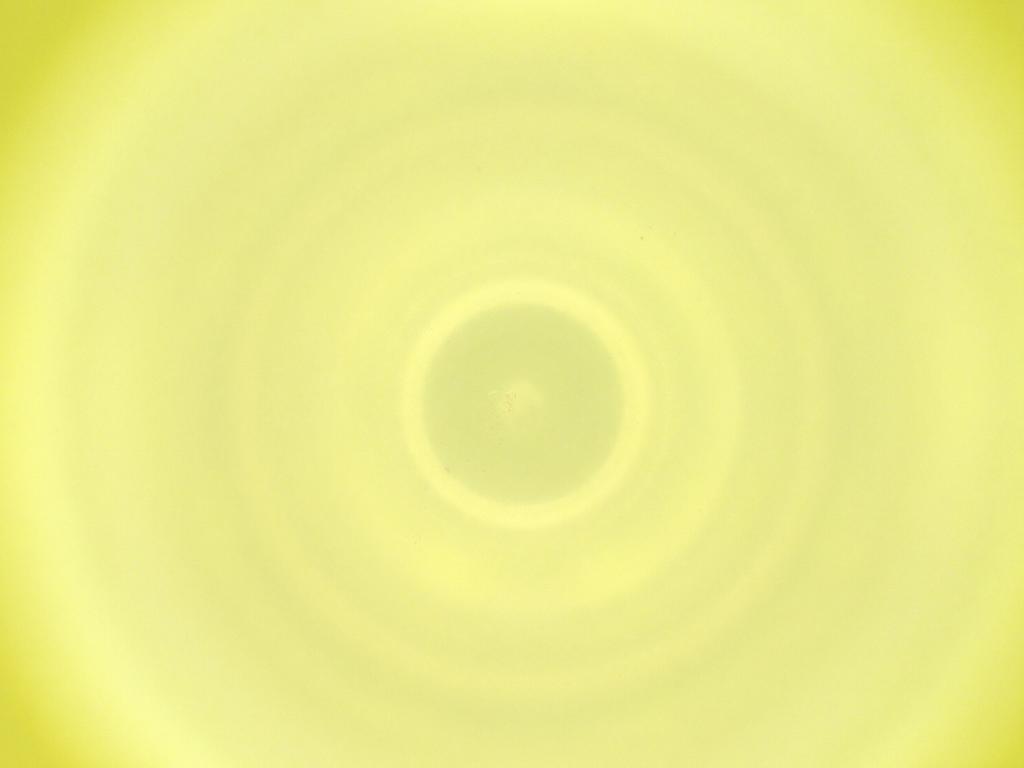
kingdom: Animalia
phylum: Arthropoda
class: Insecta
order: Diptera
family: Cecidomyiidae
